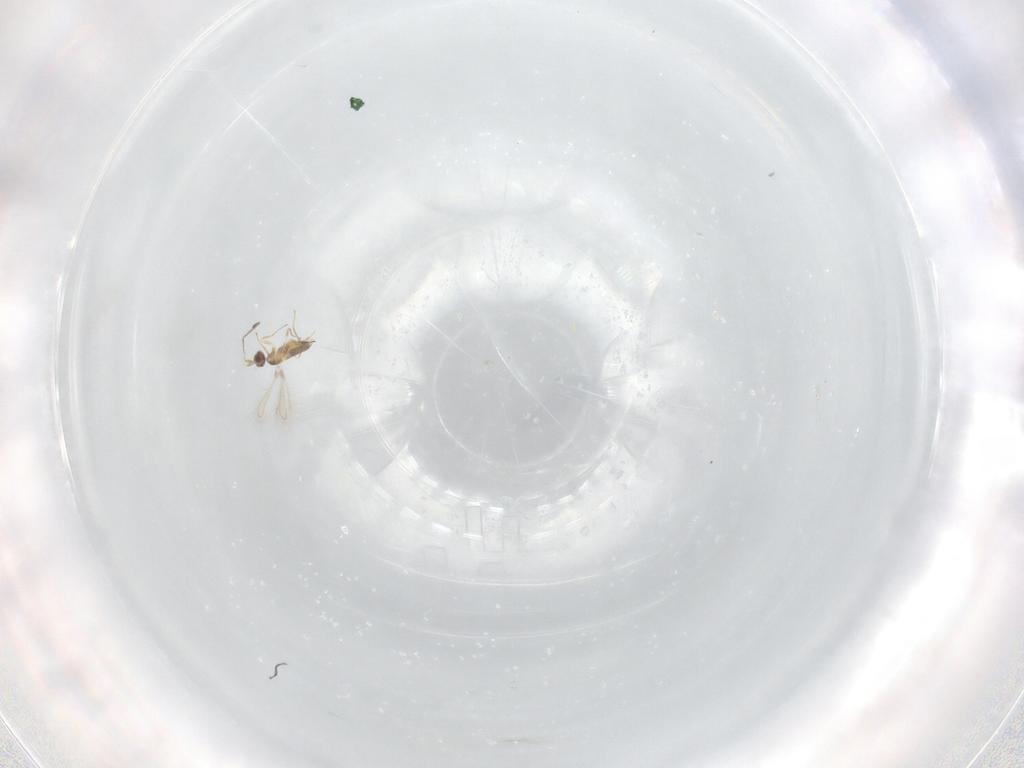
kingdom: Animalia
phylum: Arthropoda
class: Insecta
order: Hymenoptera
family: Mymaridae
